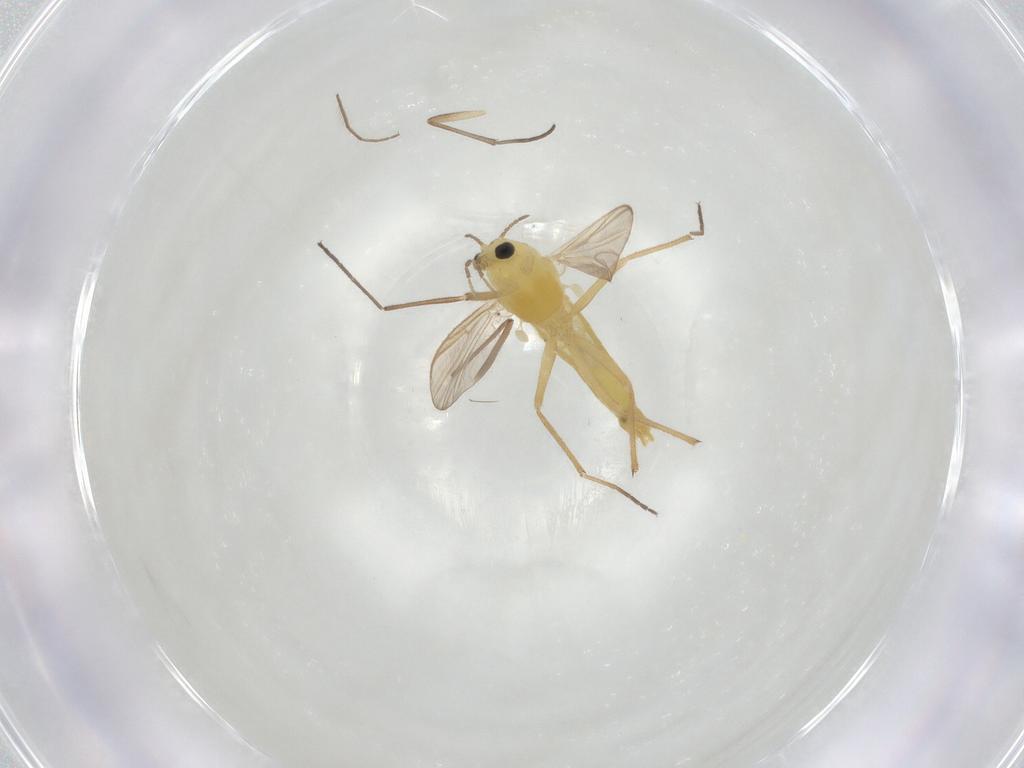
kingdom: Animalia
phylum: Arthropoda
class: Insecta
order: Diptera
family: Chironomidae
